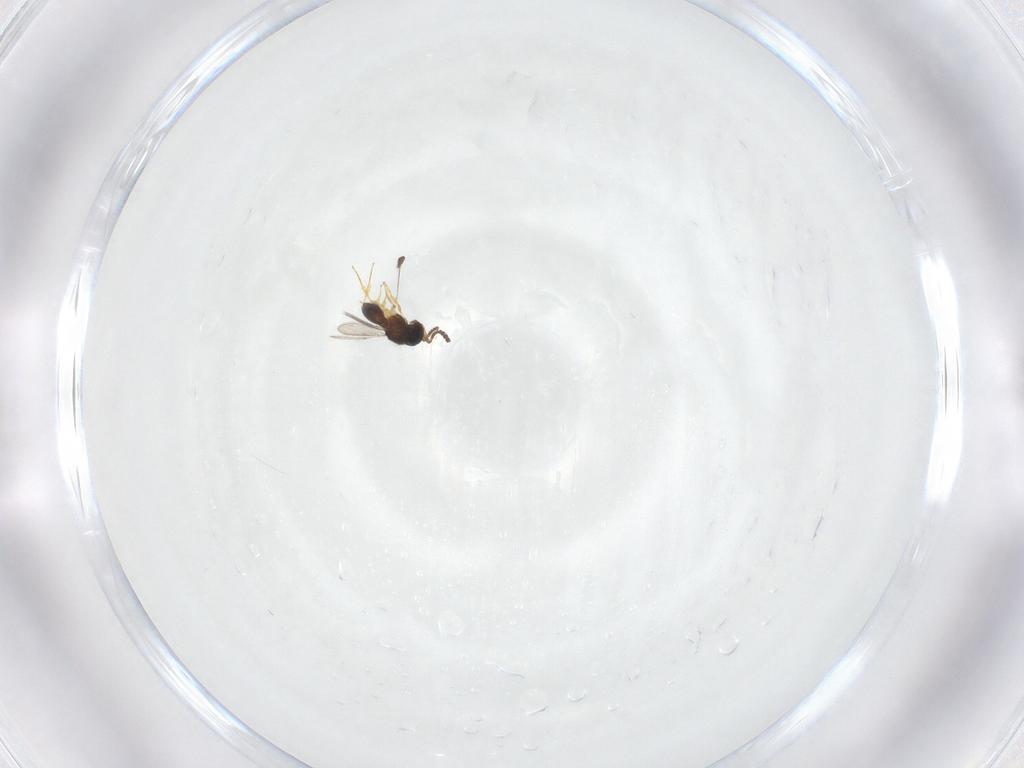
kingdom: Animalia
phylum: Arthropoda
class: Insecta
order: Hymenoptera
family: Scelionidae
